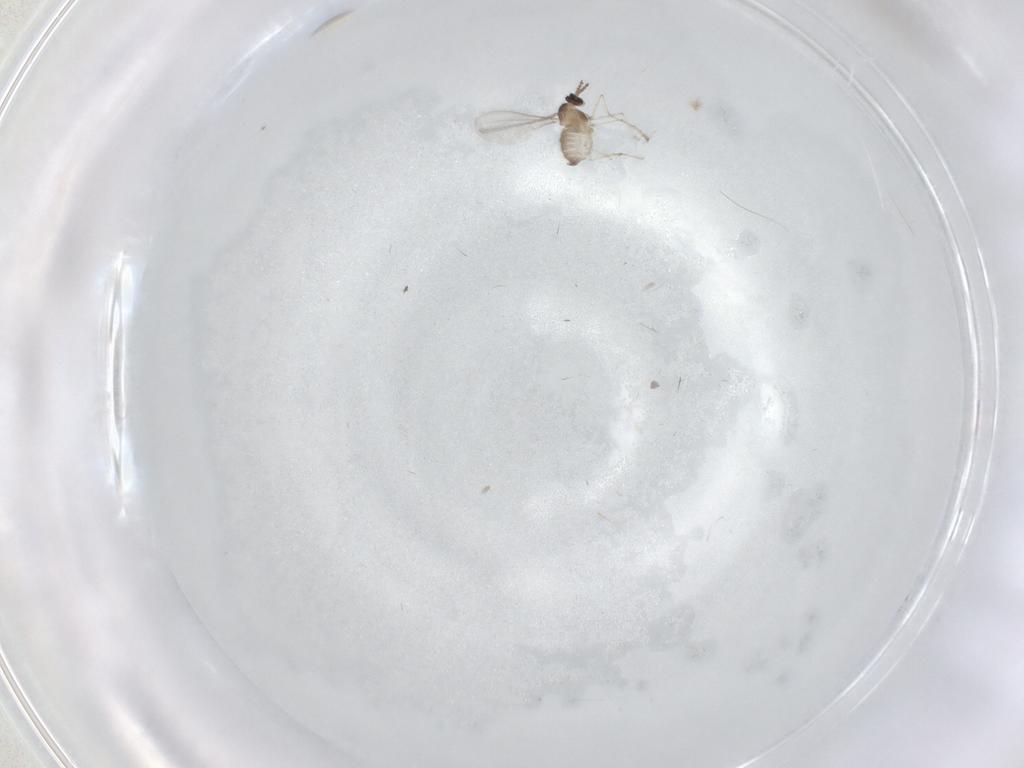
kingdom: Animalia
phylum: Arthropoda
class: Insecta
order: Diptera
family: Cecidomyiidae
